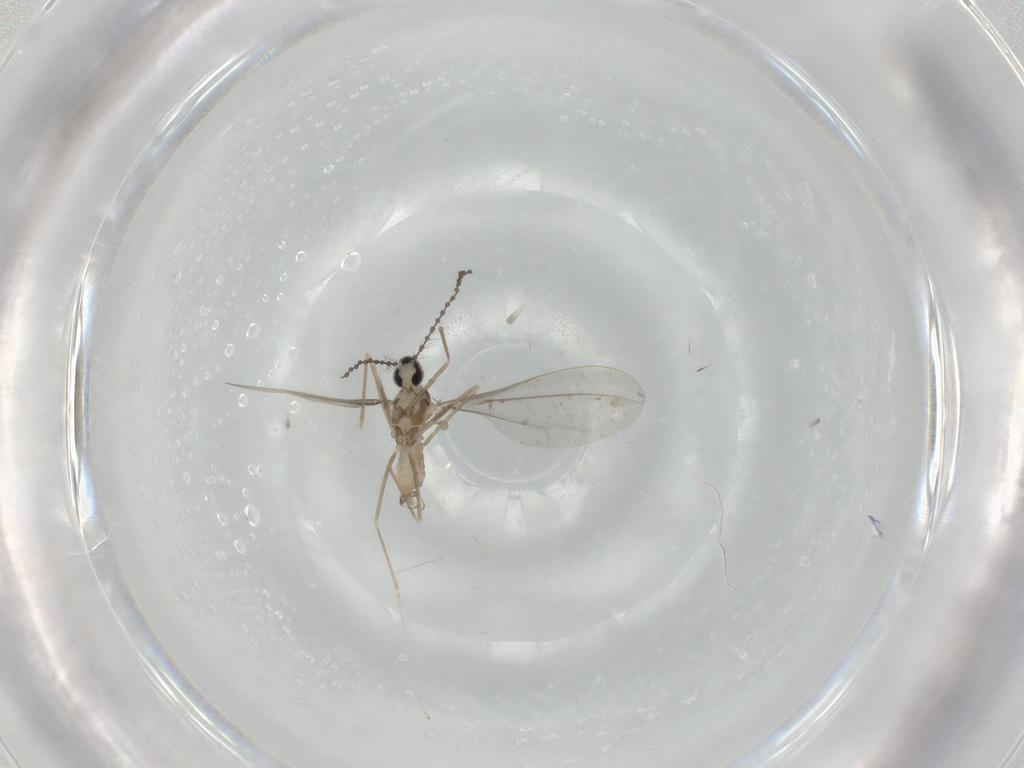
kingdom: Animalia
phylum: Arthropoda
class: Insecta
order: Diptera
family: Cecidomyiidae
